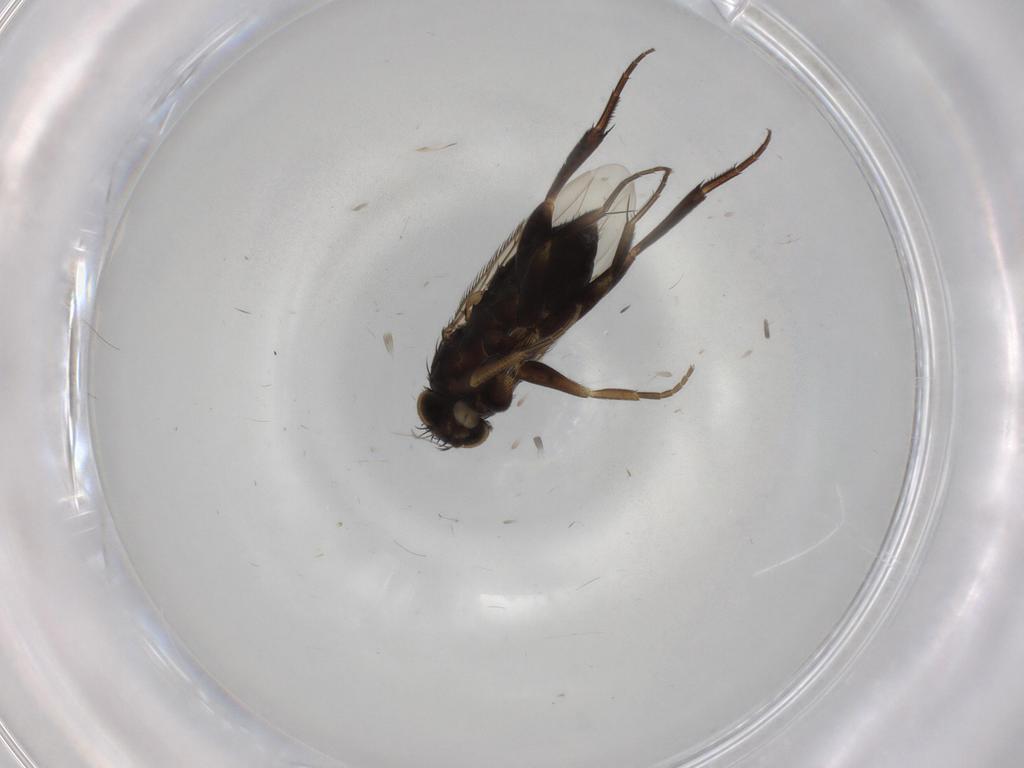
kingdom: Animalia
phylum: Arthropoda
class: Insecta
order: Diptera
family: Phoridae
